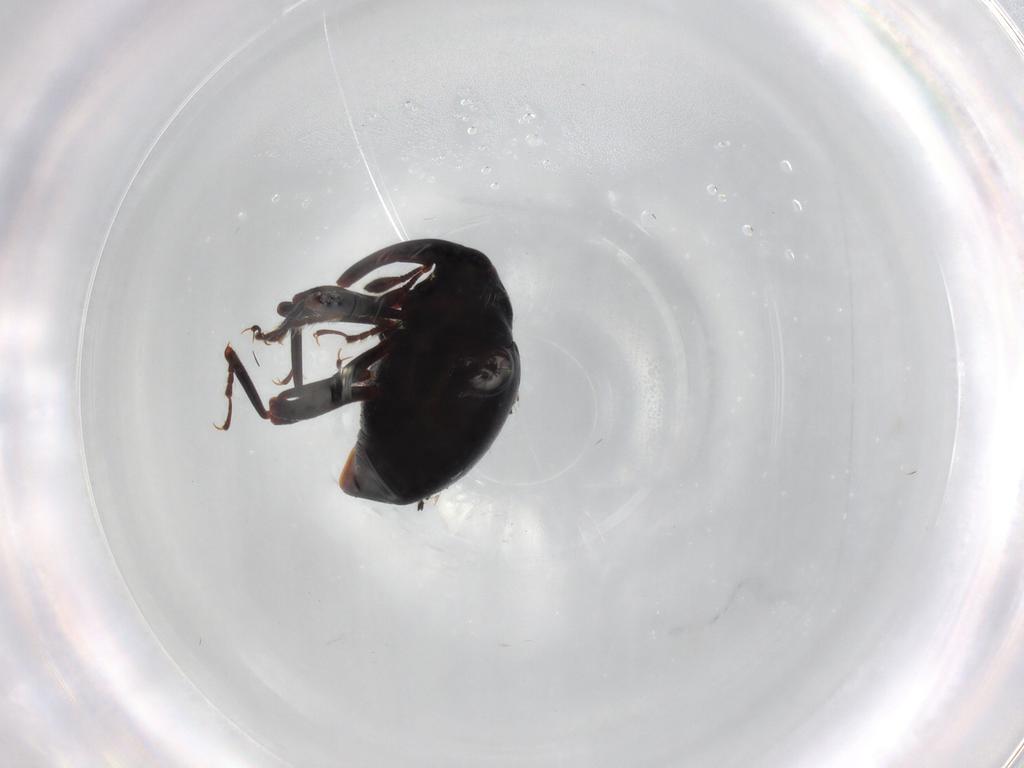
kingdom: Animalia
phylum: Arthropoda
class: Insecta
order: Coleoptera
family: Curculionidae
